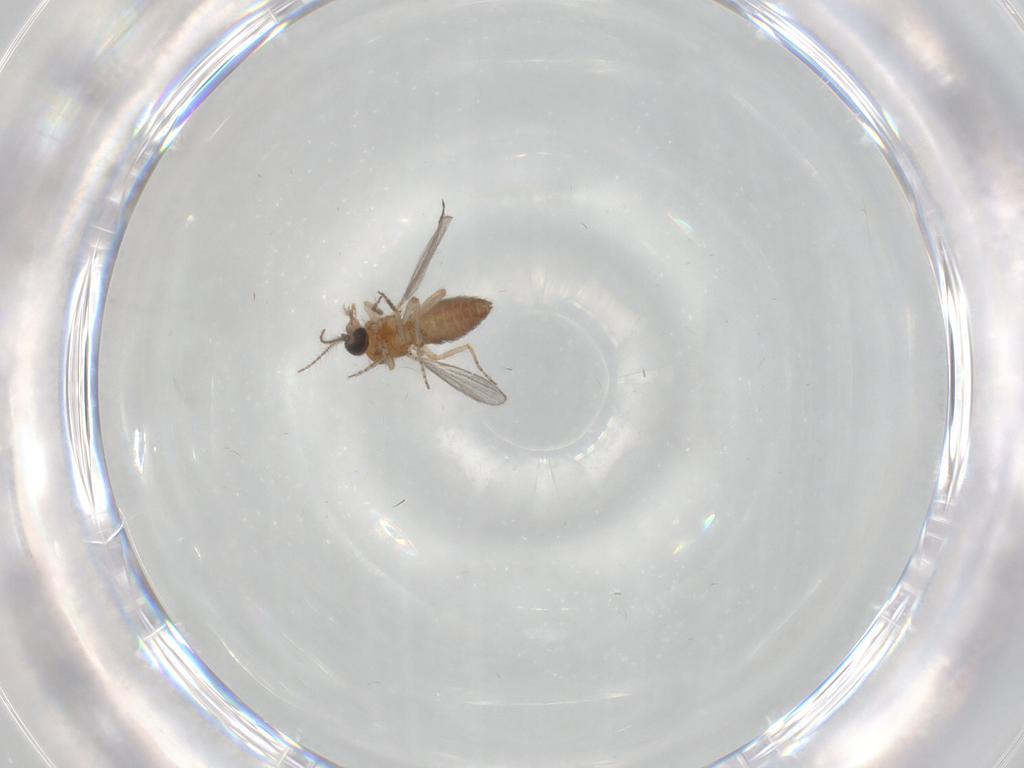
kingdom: Animalia
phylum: Arthropoda
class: Insecta
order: Diptera
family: Ceratopogonidae
